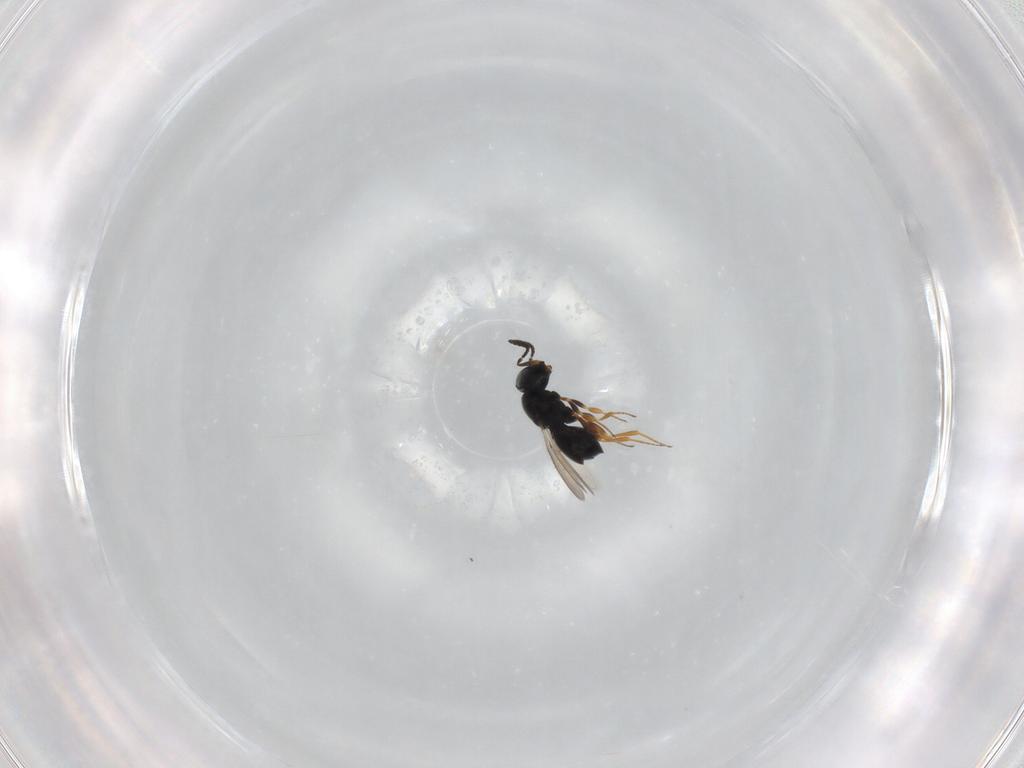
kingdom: Animalia
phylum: Arthropoda
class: Insecta
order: Hymenoptera
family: Scelionidae
